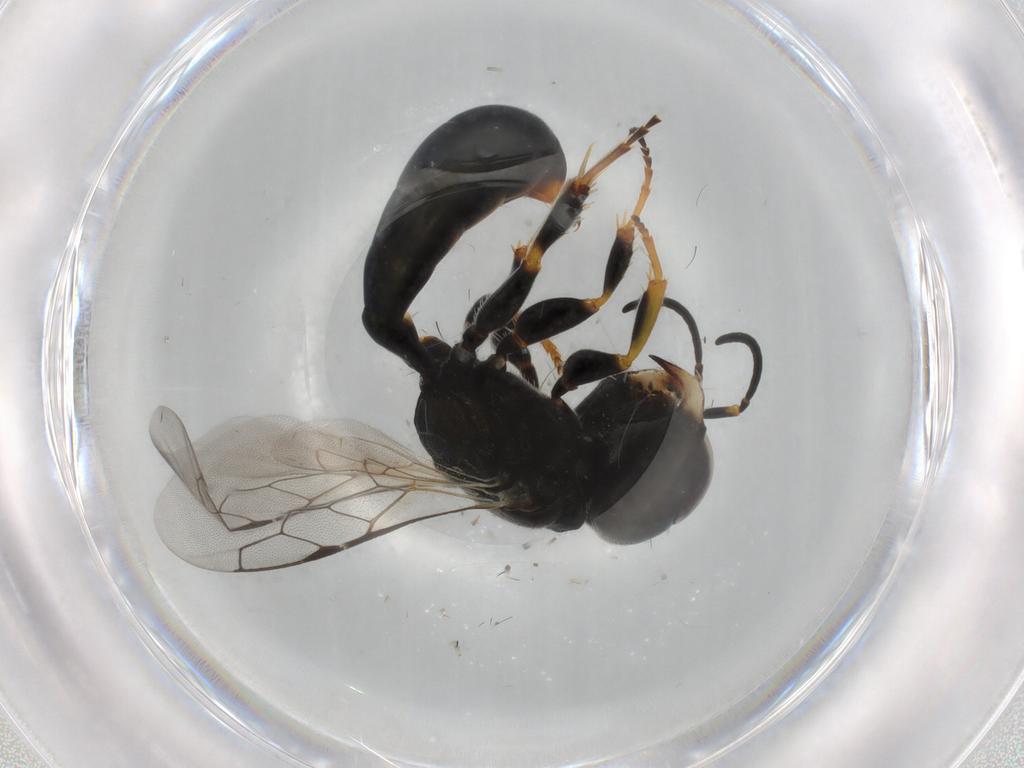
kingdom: Animalia
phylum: Arthropoda
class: Insecta
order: Hymenoptera
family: Crabronidae
